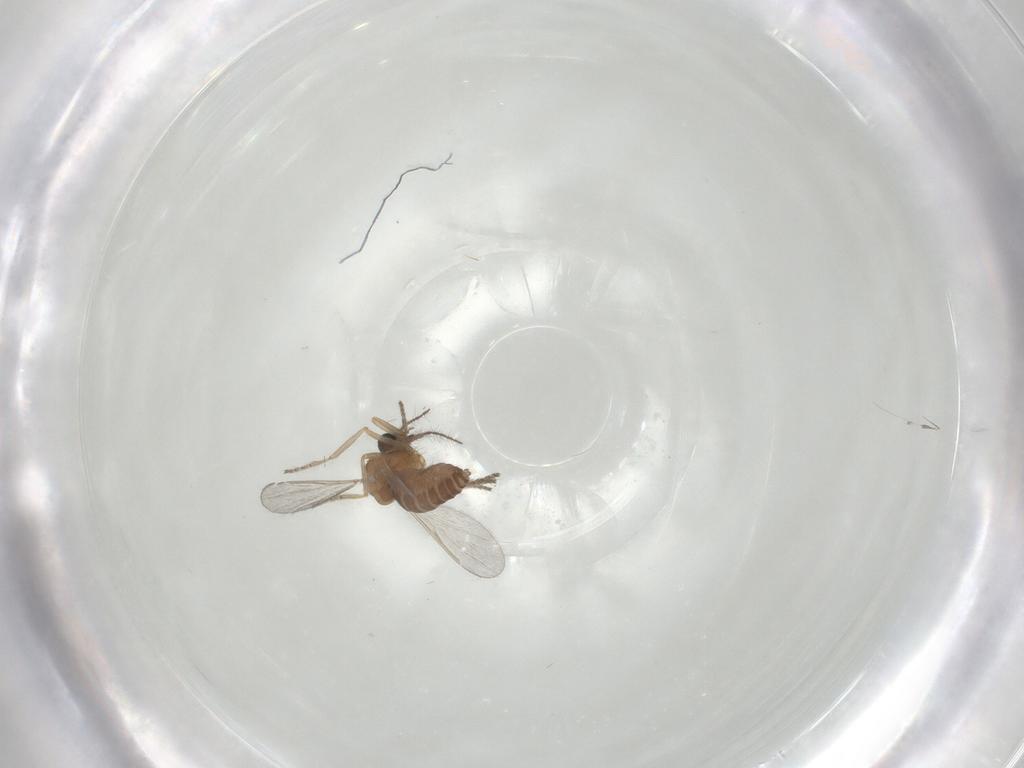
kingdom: Animalia
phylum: Arthropoda
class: Insecta
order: Diptera
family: Ceratopogonidae
